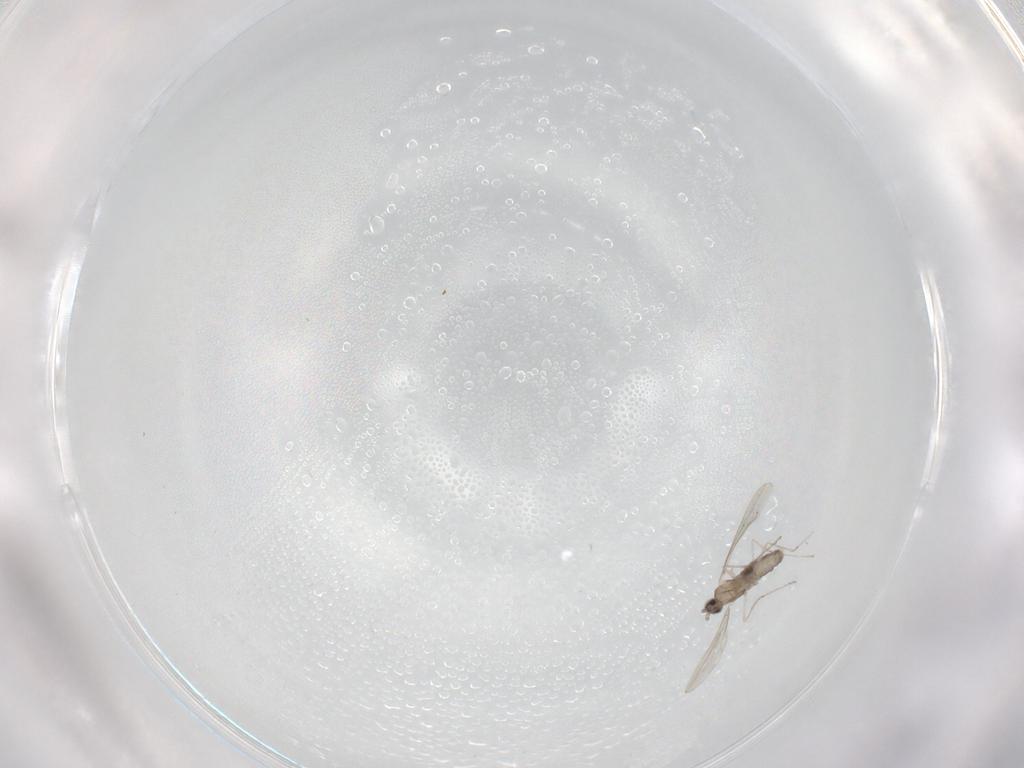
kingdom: Animalia
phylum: Arthropoda
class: Insecta
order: Diptera
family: Cecidomyiidae
